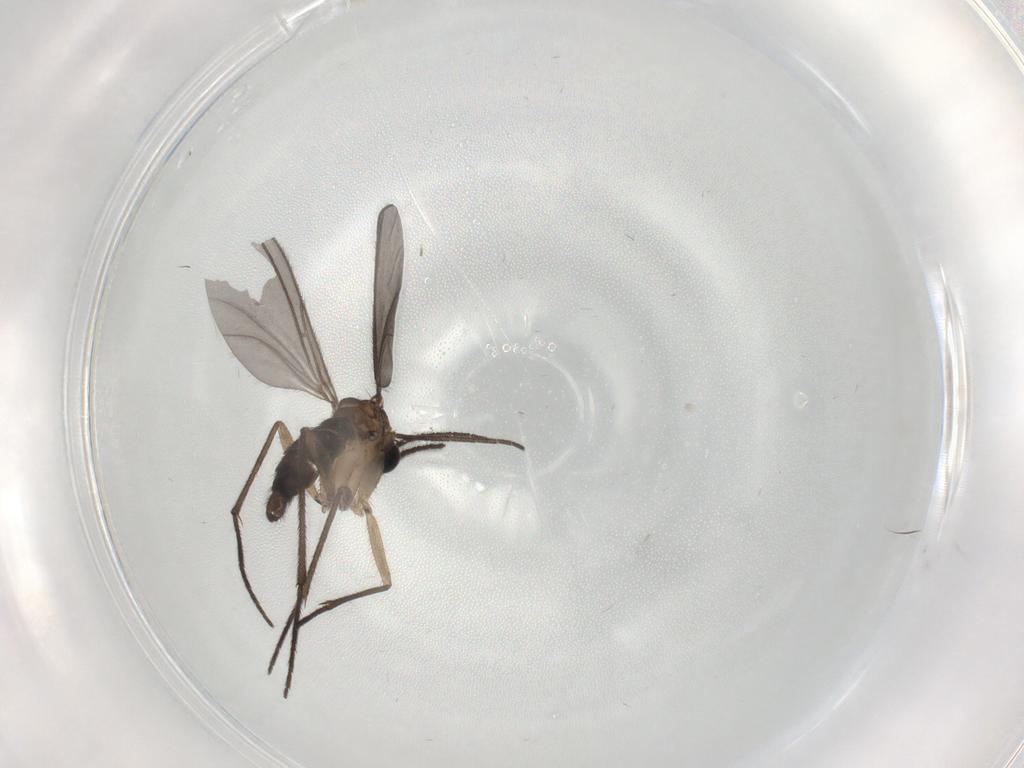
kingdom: Animalia
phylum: Arthropoda
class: Insecta
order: Diptera
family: Sciaridae
